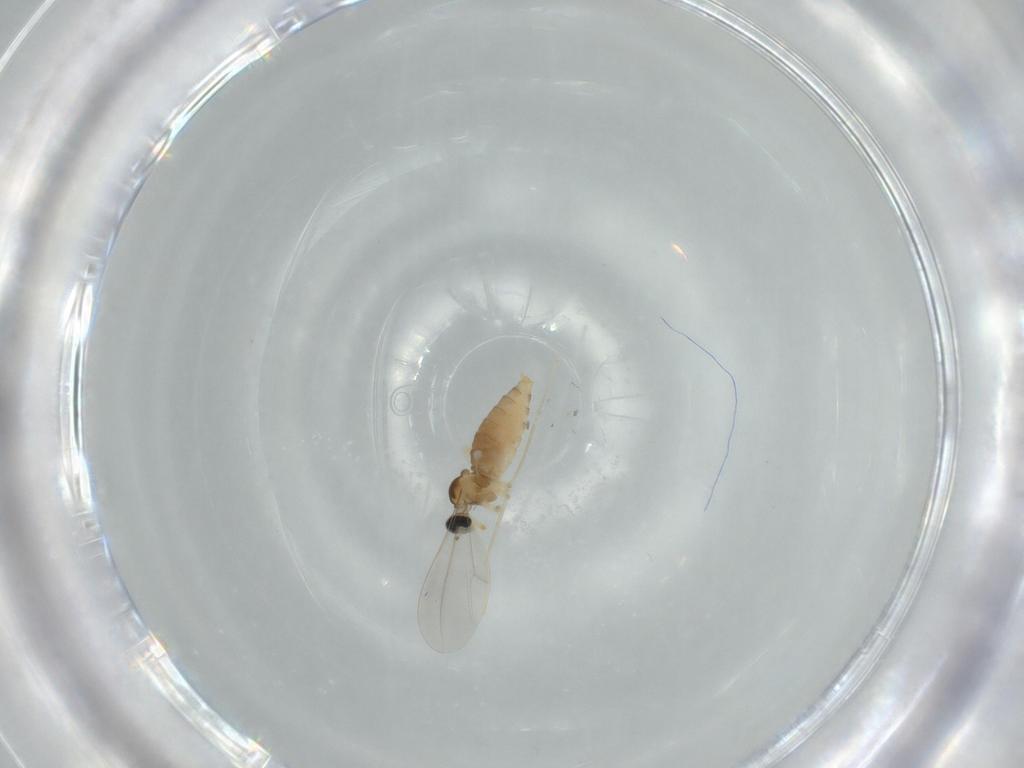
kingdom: Animalia
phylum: Arthropoda
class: Insecta
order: Diptera
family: Cecidomyiidae
